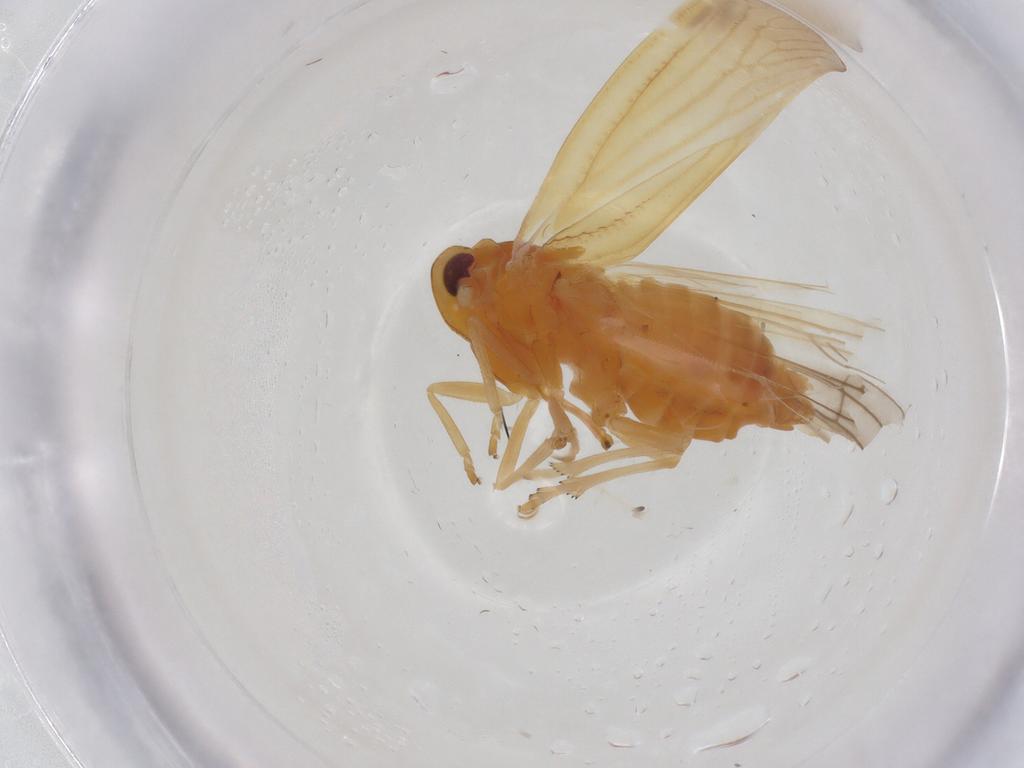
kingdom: Animalia
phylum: Arthropoda
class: Insecta
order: Hemiptera
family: Derbidae
